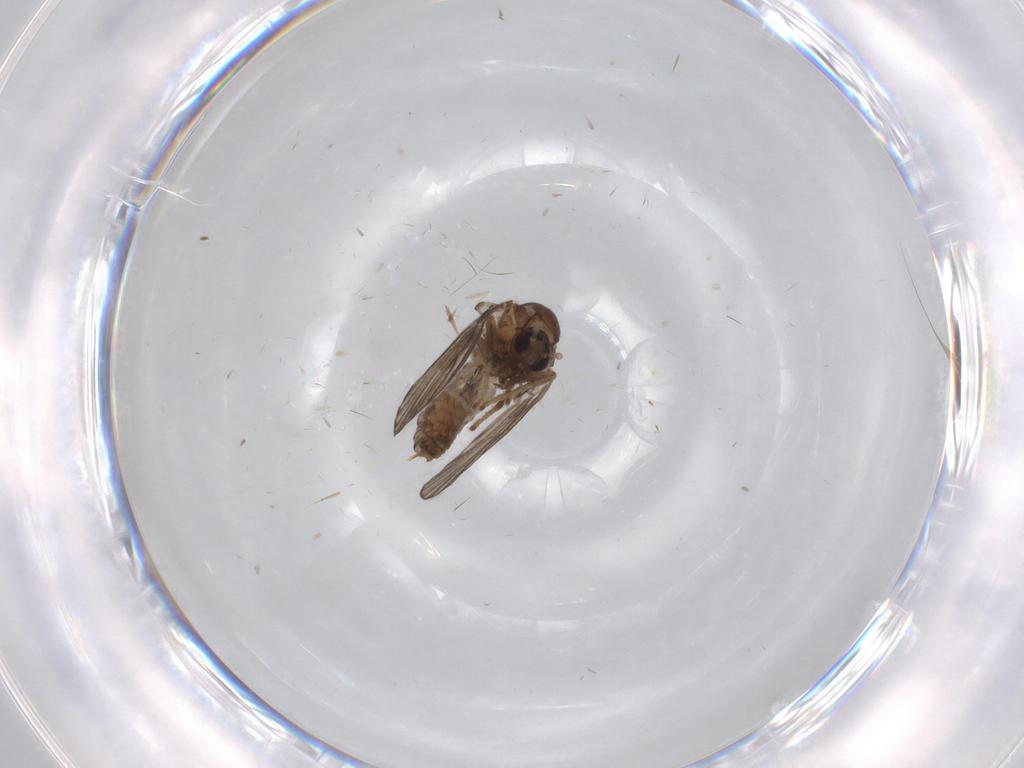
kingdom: Animalia
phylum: Arthropoda
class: Insecta
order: Diptera
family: Psychodidae
